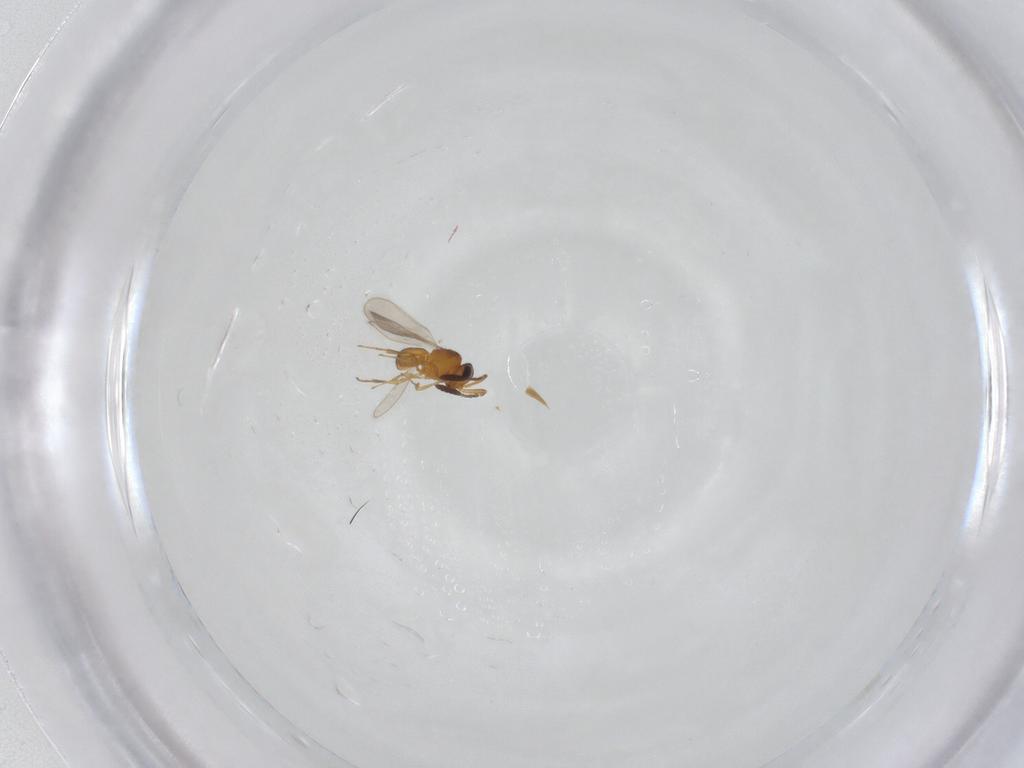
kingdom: Animalia
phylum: Arthropoda
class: Insecta
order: Hymenoptera
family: Scelionidae
